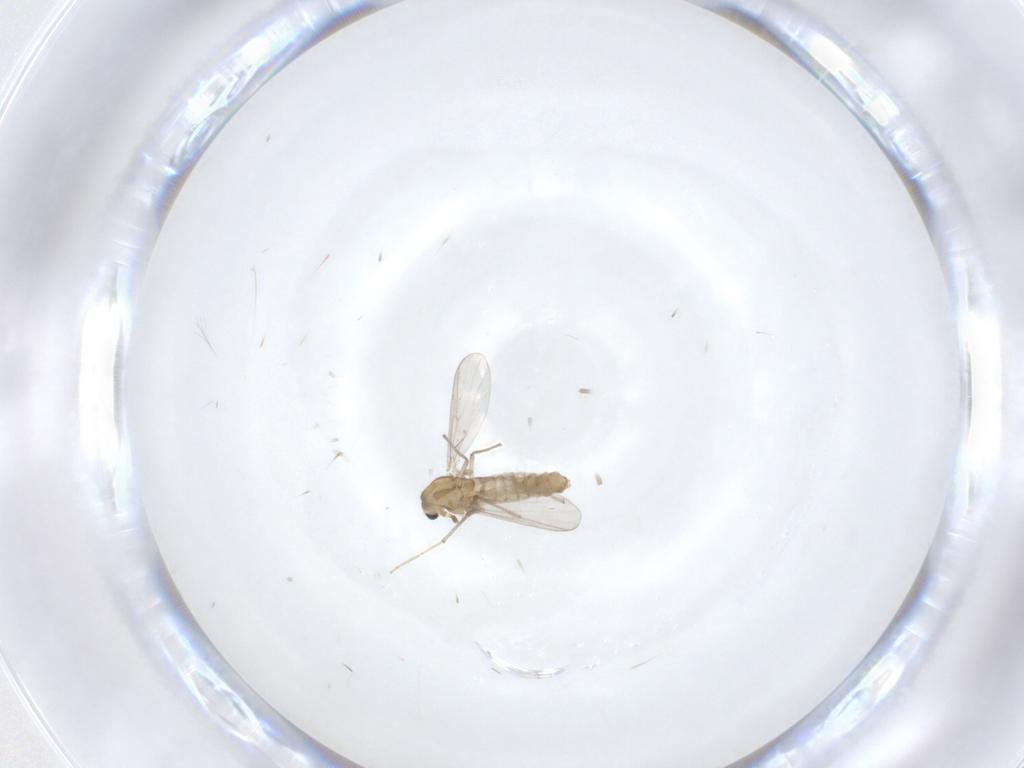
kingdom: Animalia
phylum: Arthropoda
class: Insecta
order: Diptera
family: Chironomidae
